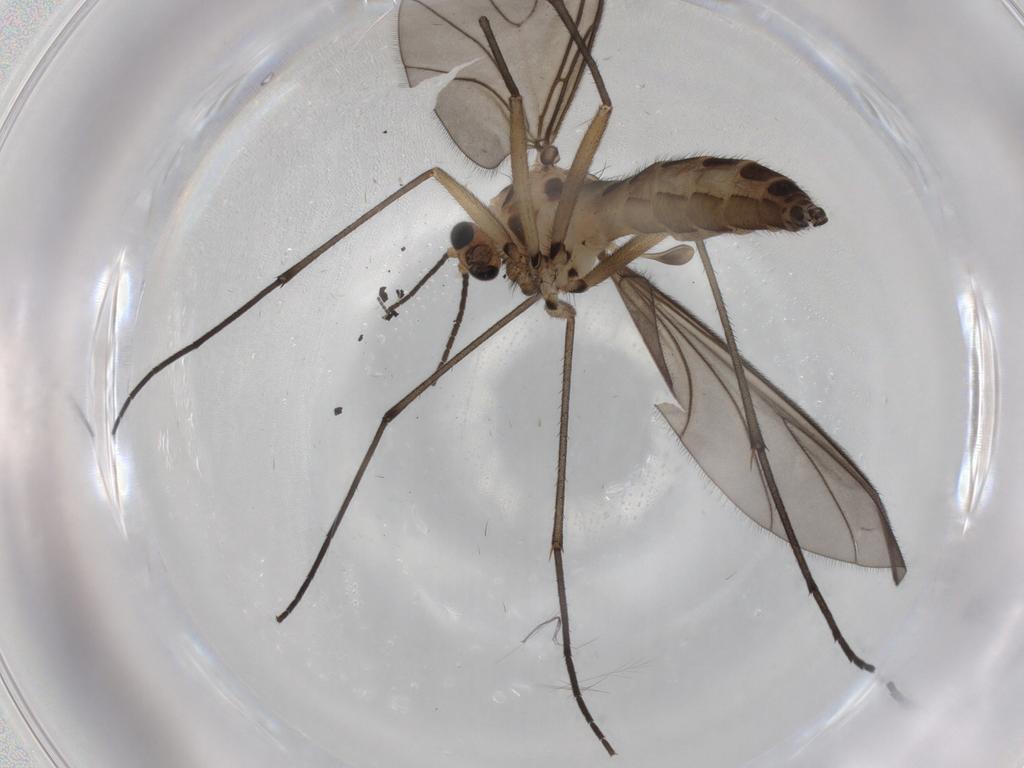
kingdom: Animalia
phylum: Arthropoda
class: Insecta
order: Diptera
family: Sciaridae
